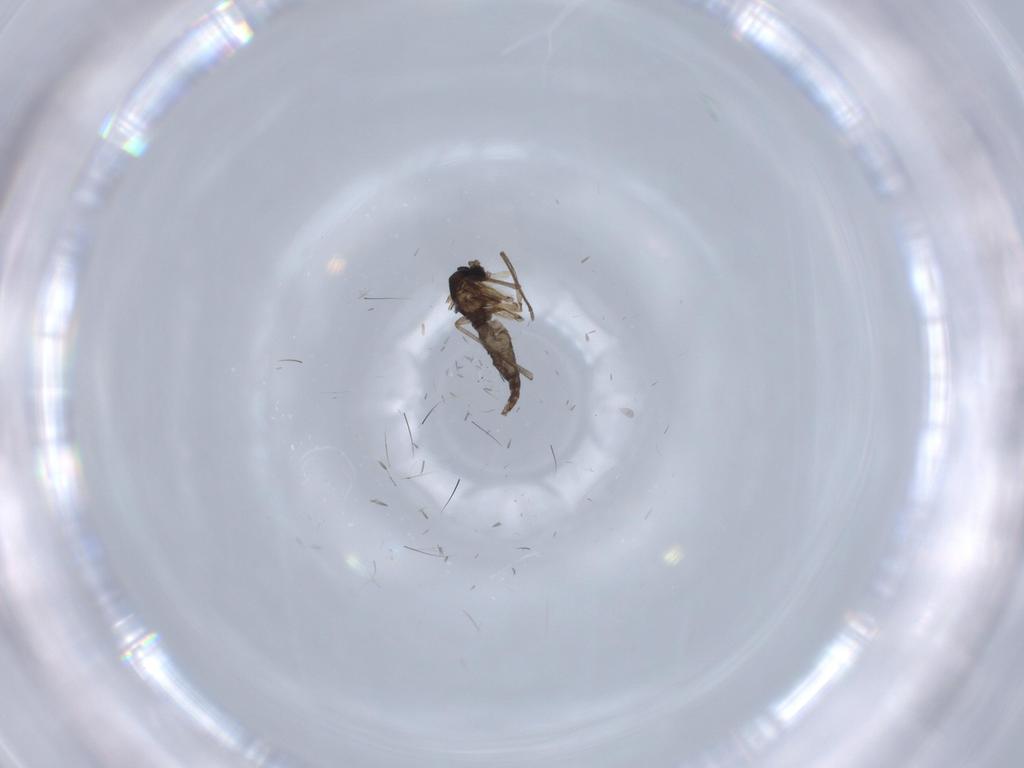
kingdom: Animalia
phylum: Arthropoda
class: Insecta
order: Diptera
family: Sciaridae
